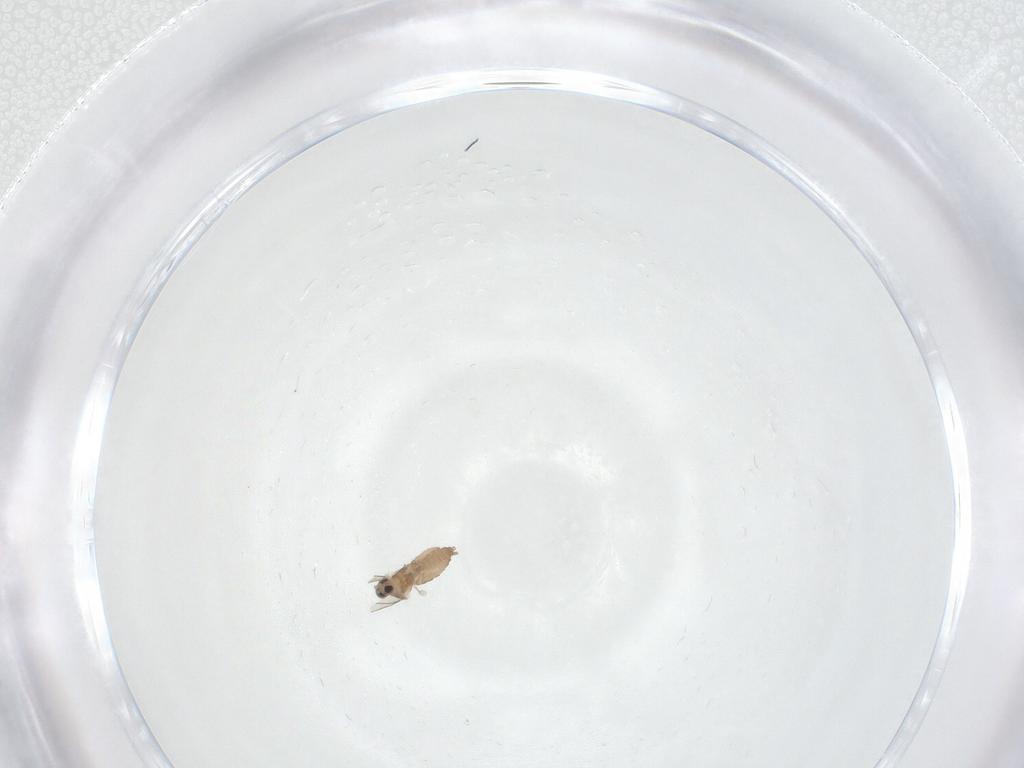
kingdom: Animalia
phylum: Arthropoda
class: Insecta
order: Diptera
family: Cecidomyiidae
